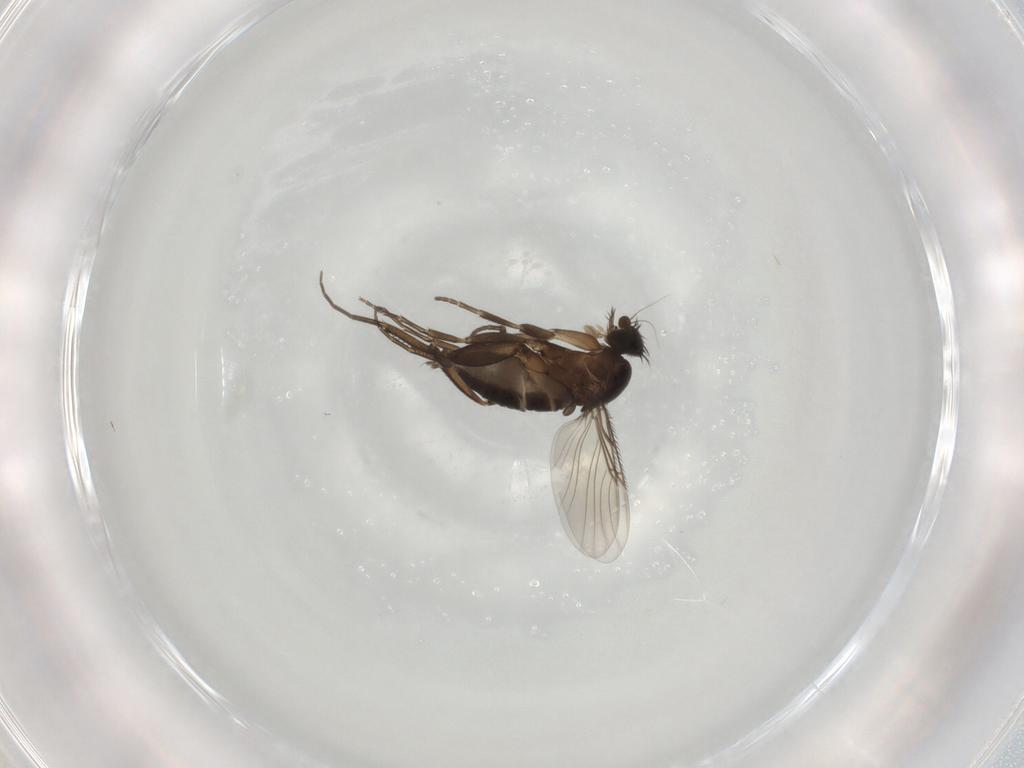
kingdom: Animalia
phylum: Arthropoda
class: Insecta
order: Diptera
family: Phoridae
